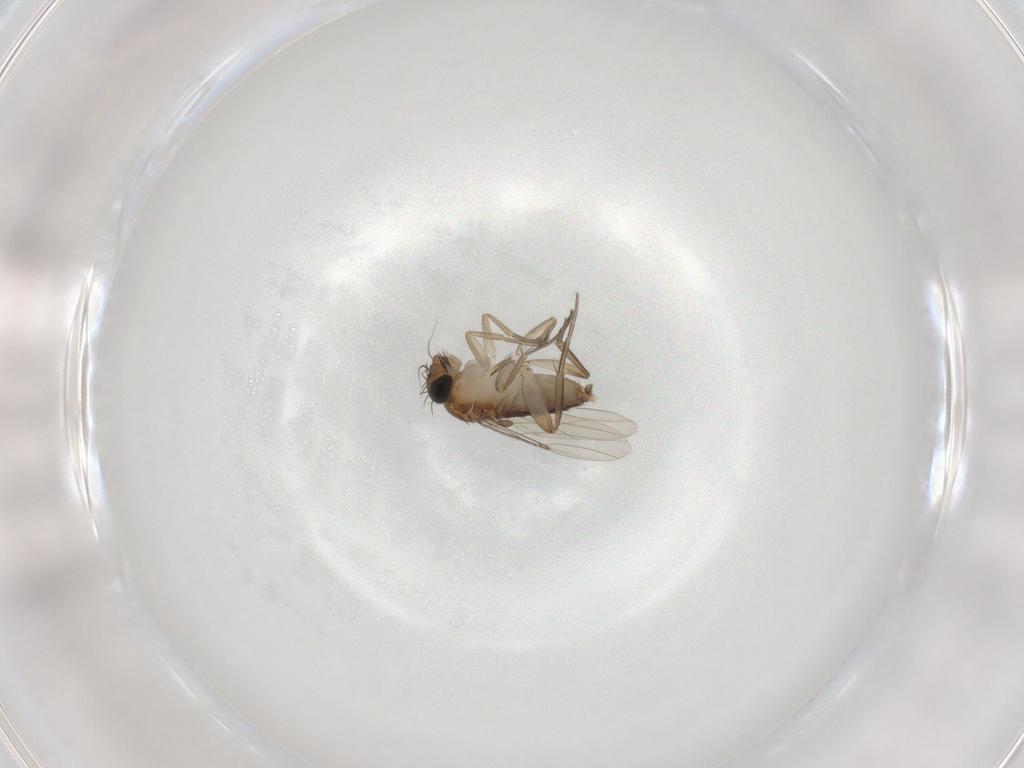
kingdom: Animalia
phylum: Arthropoda
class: Insecta
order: Diptera
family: Phoridae
